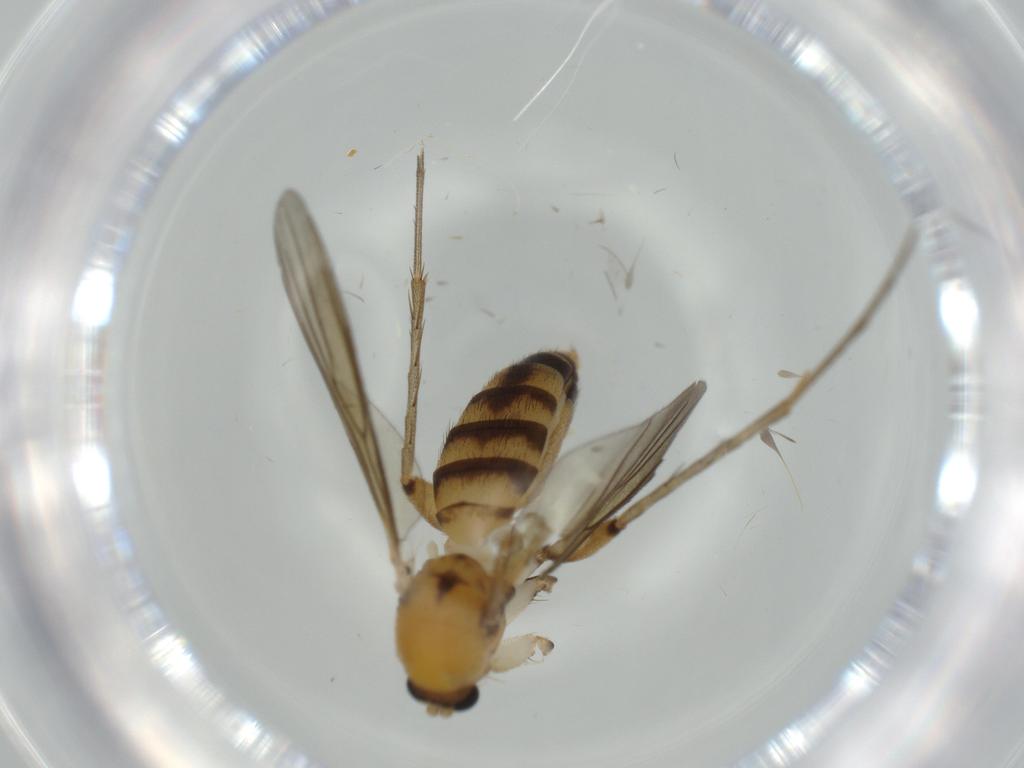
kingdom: Animalia
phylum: Arthropoda
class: Insecta
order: Diptera
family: Mycetophilidae
